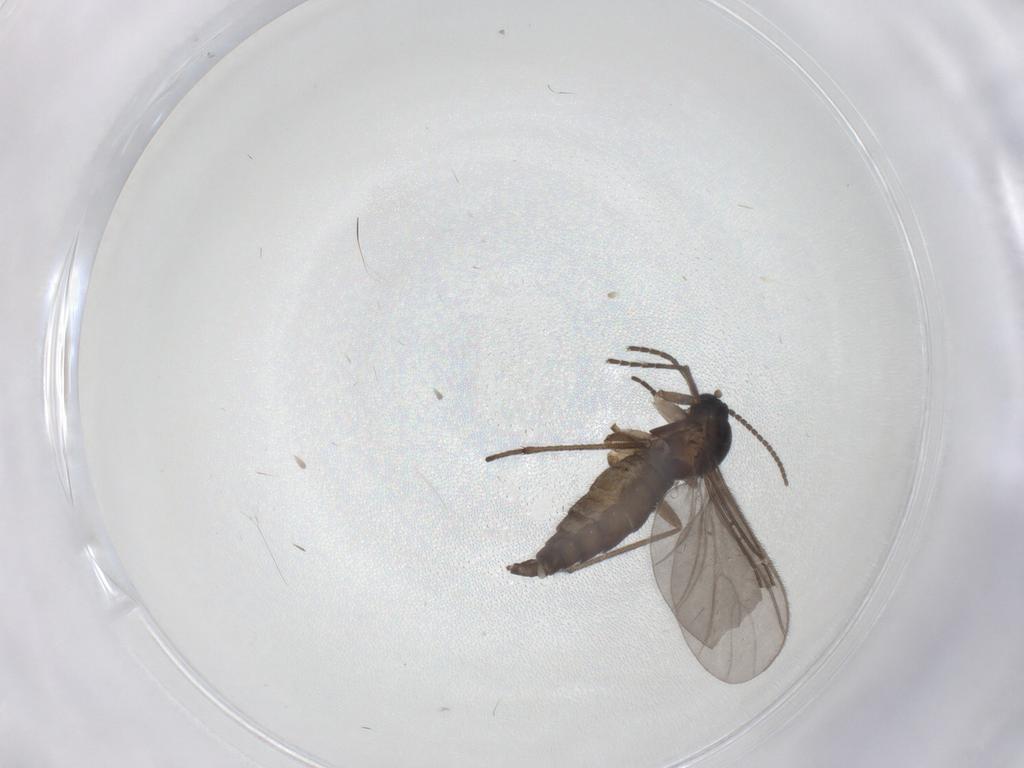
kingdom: Animalia
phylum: Arthropoda
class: Insecta
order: Diptera
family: Sciaridae
